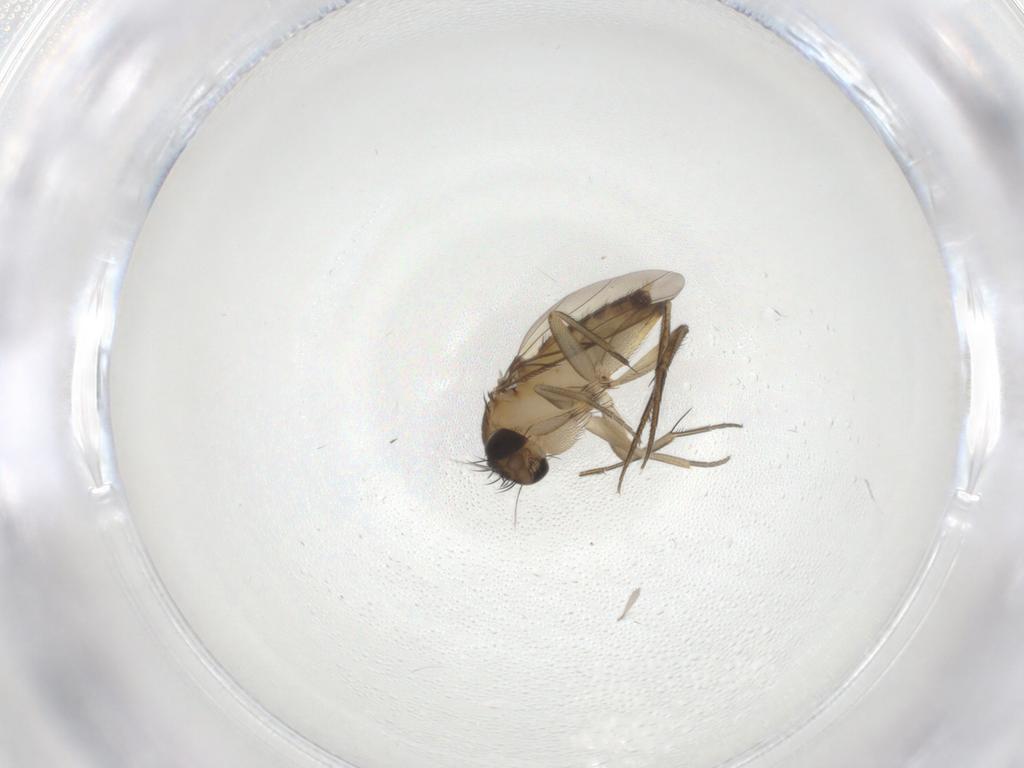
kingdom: Animalia
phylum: Arthropoda
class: Insecta
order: Diptera
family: Phoridae
